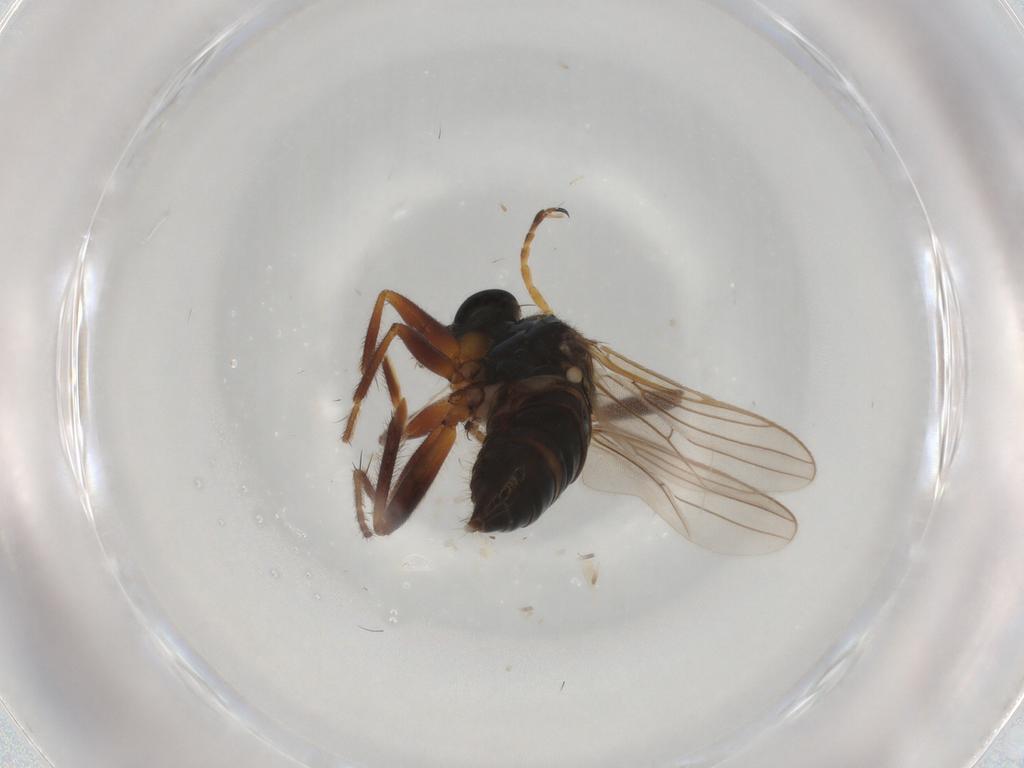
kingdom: Animalia
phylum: Arthropoda
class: Insecta
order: Diptera
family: Hybotidae
